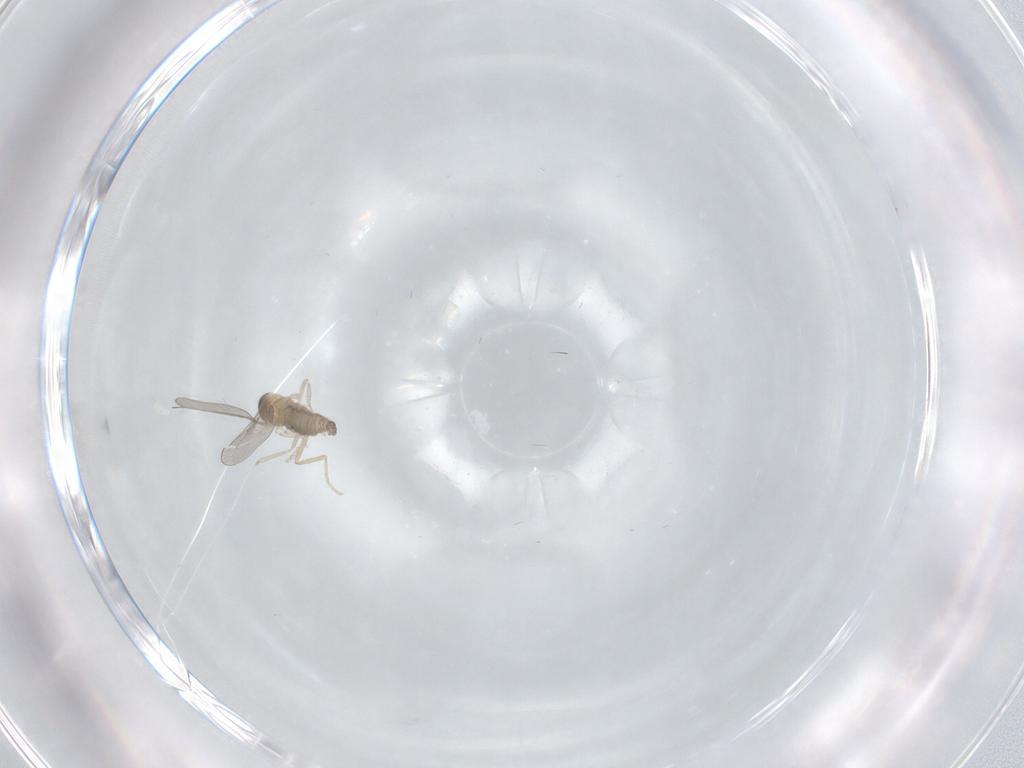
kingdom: Animalia
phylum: Arthropoda
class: Insecta
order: Diptera
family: Cecidomyiidae
